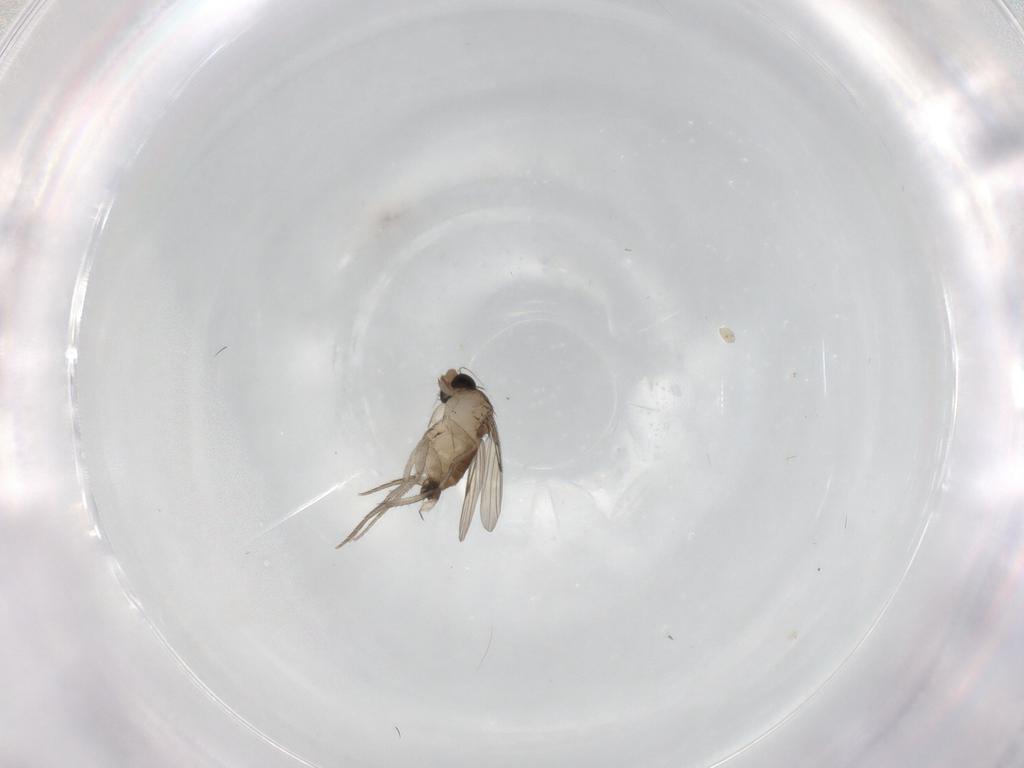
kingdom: Animalia
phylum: Arthropoda
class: Insecta
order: Diptera
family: Phoridae
